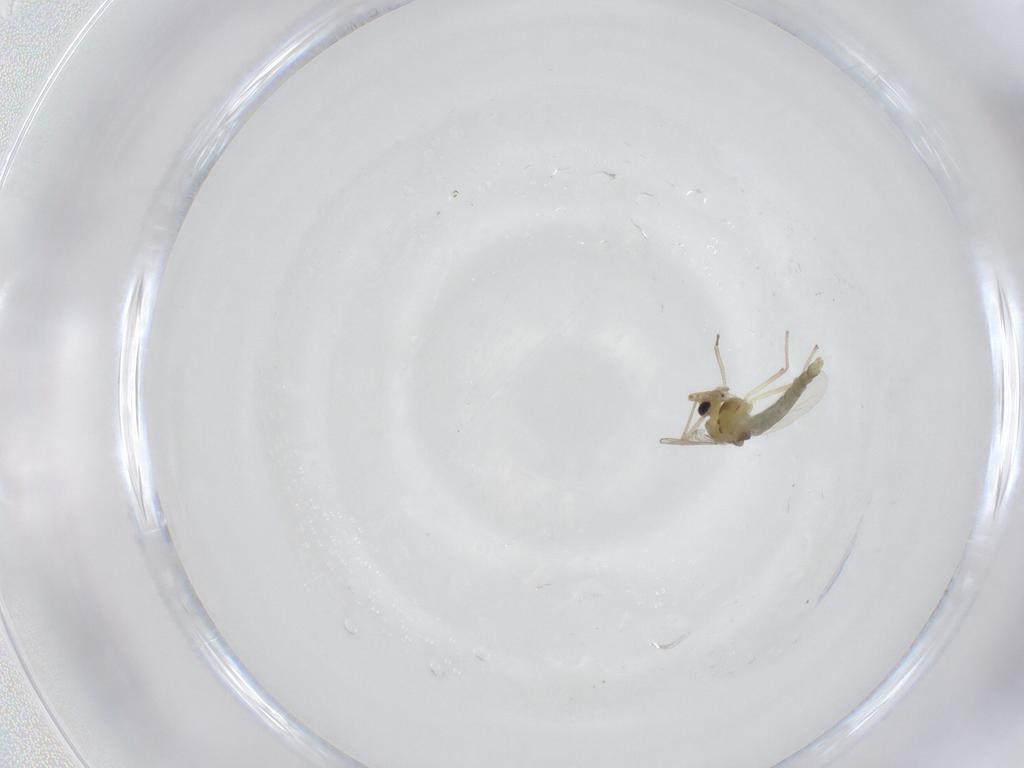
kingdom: Animalia
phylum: Arthropoda
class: Insecta
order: Diptera
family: Chironomidae
